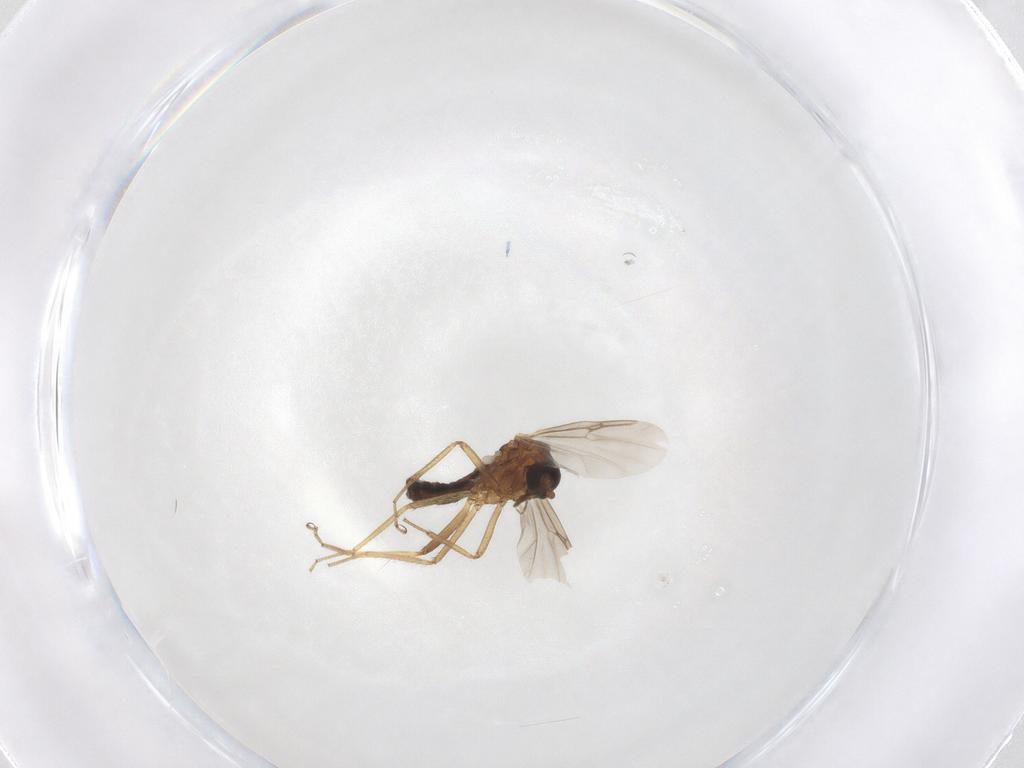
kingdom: Animalia
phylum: Arthropoda
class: Insecta
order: Diptera
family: Ceratopogonidae
